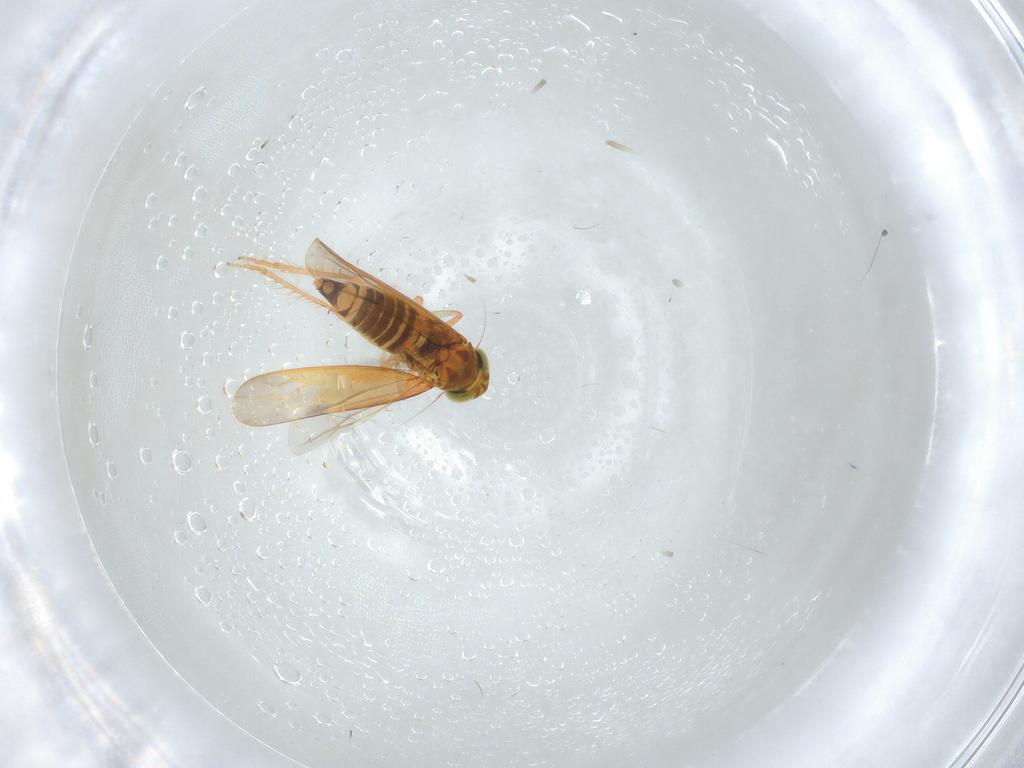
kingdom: Animalia
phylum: Arthropoda
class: Insecta
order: Hemiptera
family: Cicadellidae
